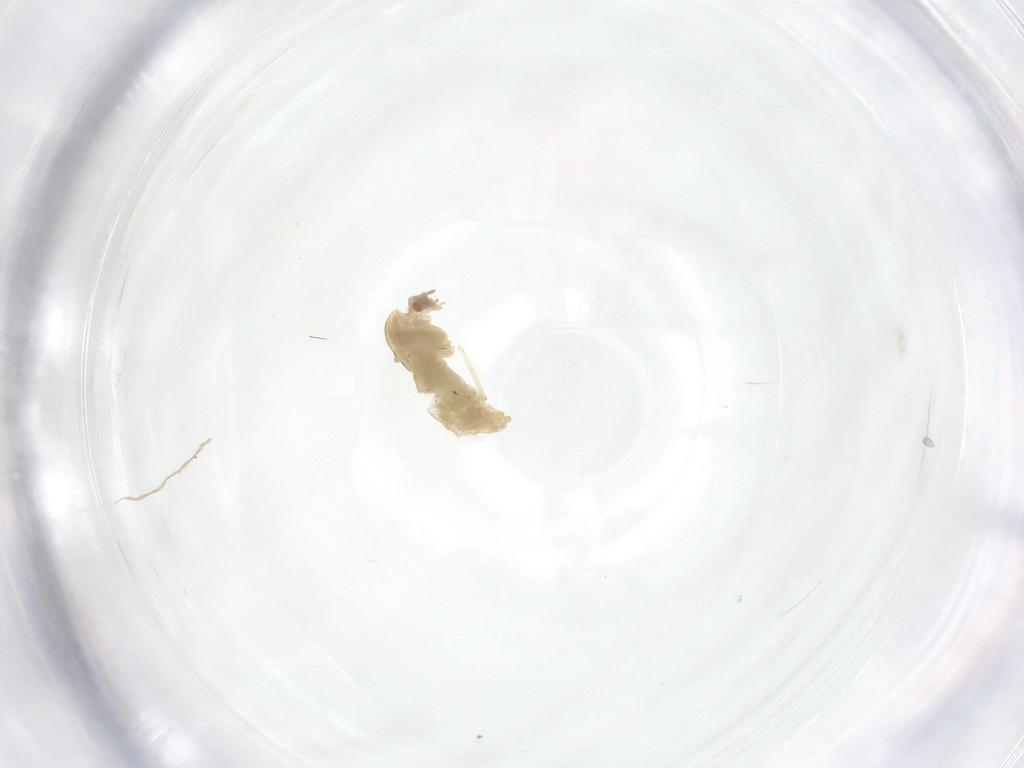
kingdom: Animalia
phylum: Arthropoda
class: Insecta
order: Diptera
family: Chironomidae
